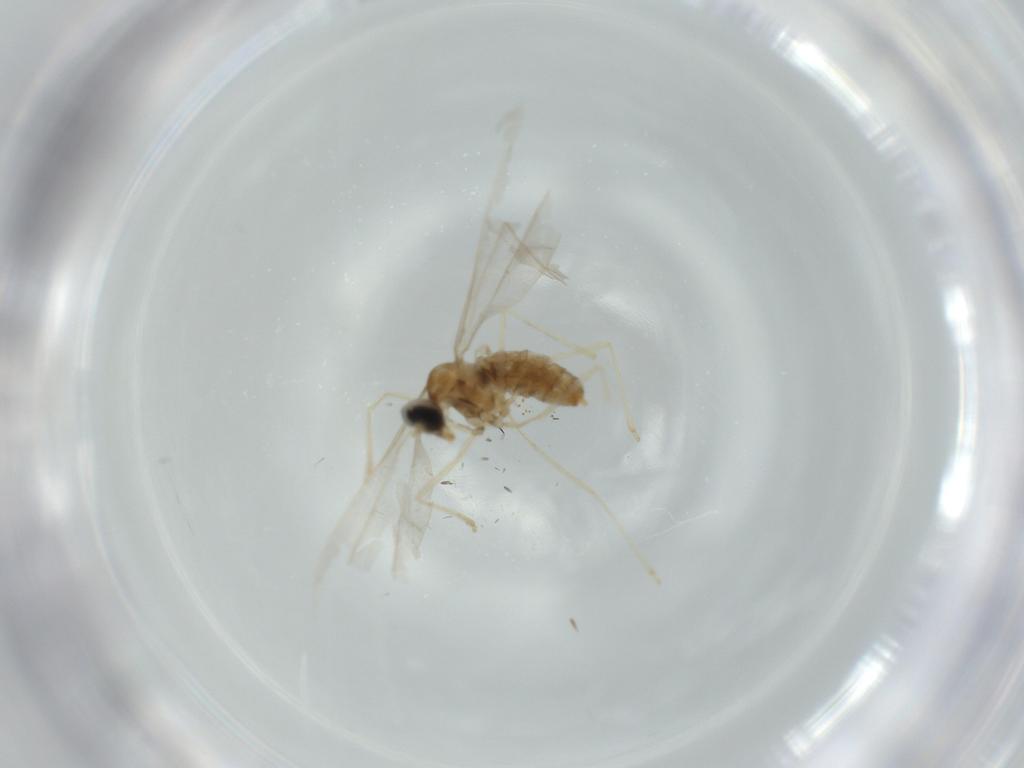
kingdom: Animalia
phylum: Arthropoda
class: Insecta
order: Diptera
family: Cecidomyiidae
